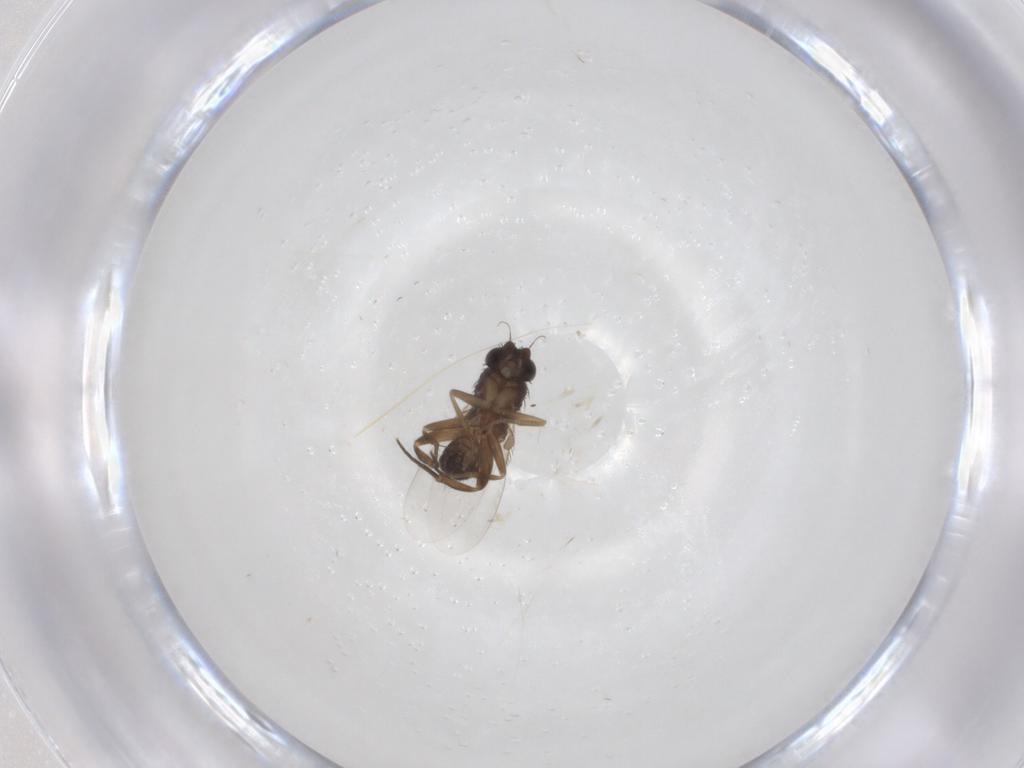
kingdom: Animalia
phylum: Arthropoda
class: Insecta
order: Diptera
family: Phoridae
